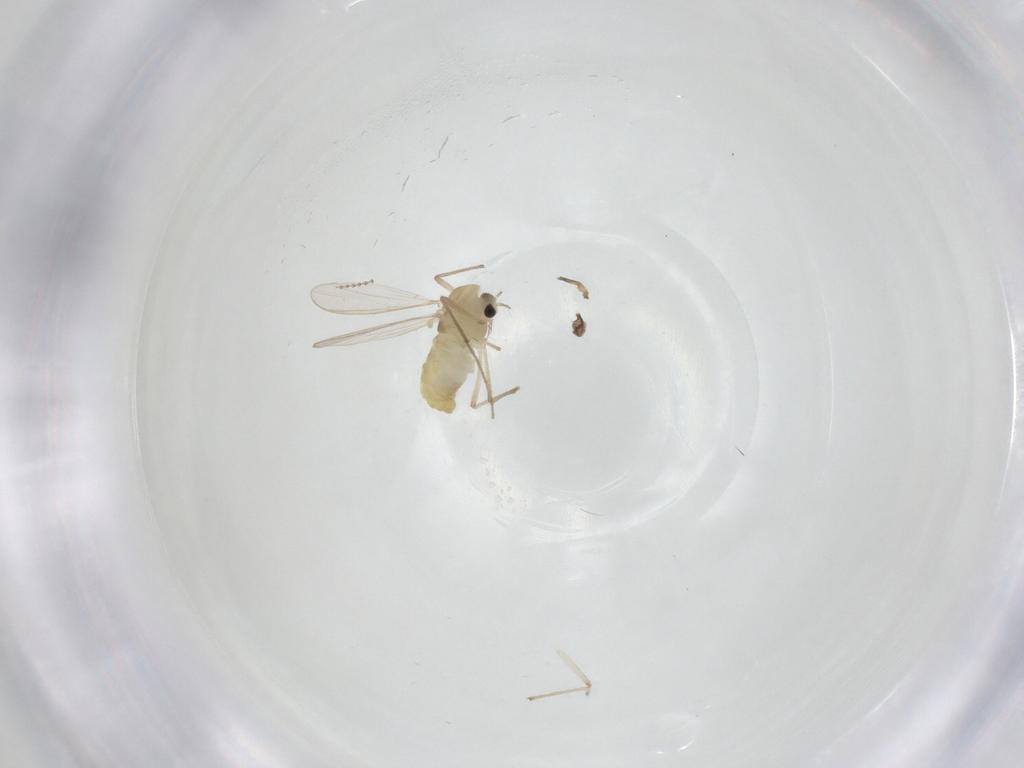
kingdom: Animalia
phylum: Arthropoda
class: Insecta
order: Diptera
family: Chironomidae
